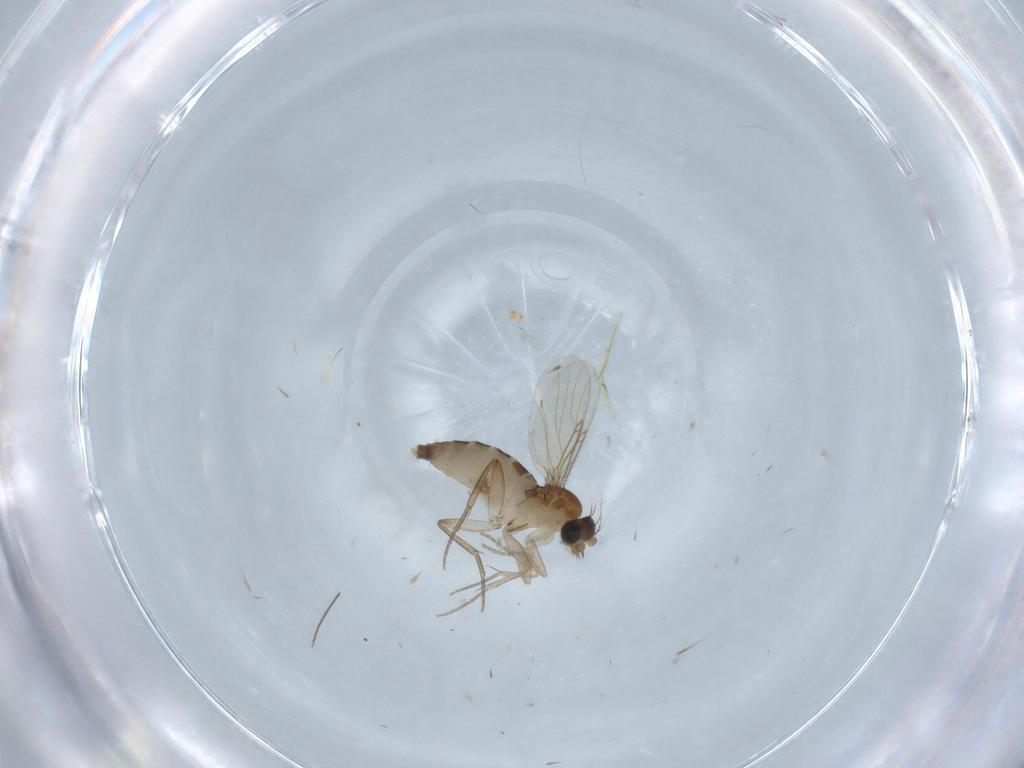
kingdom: Animalia
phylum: Arthropoda
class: Insecta
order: Diptera
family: Phoridae
